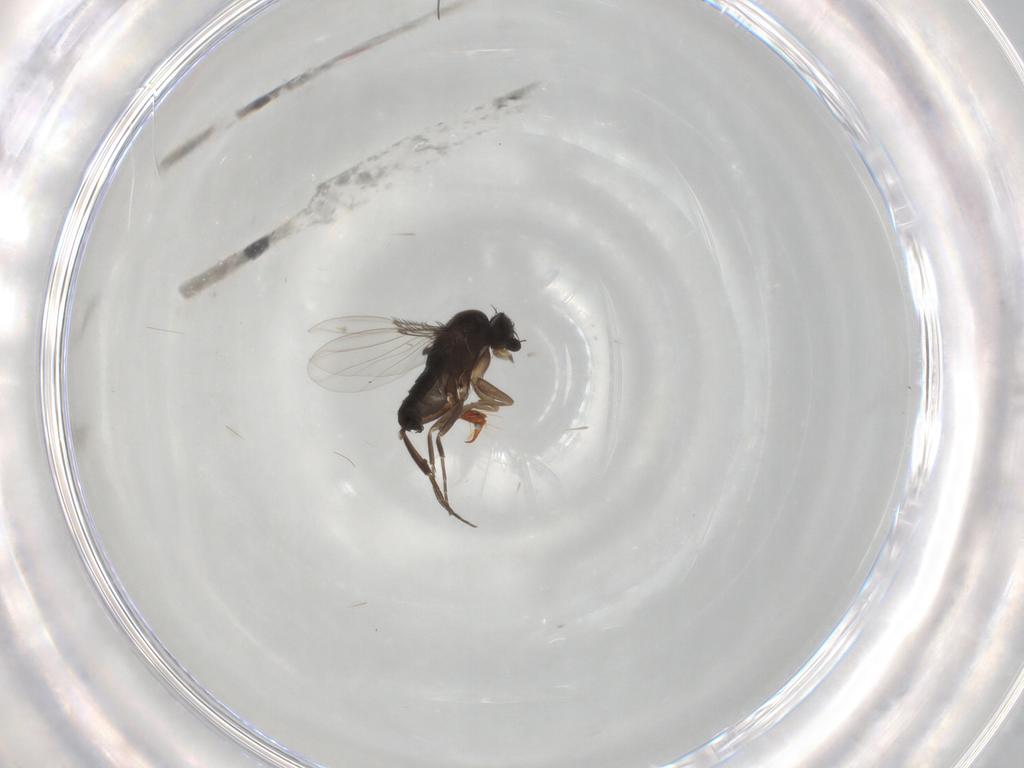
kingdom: Animalia
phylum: Arthropoda
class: Insecta
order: Diptera
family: Phoridae
